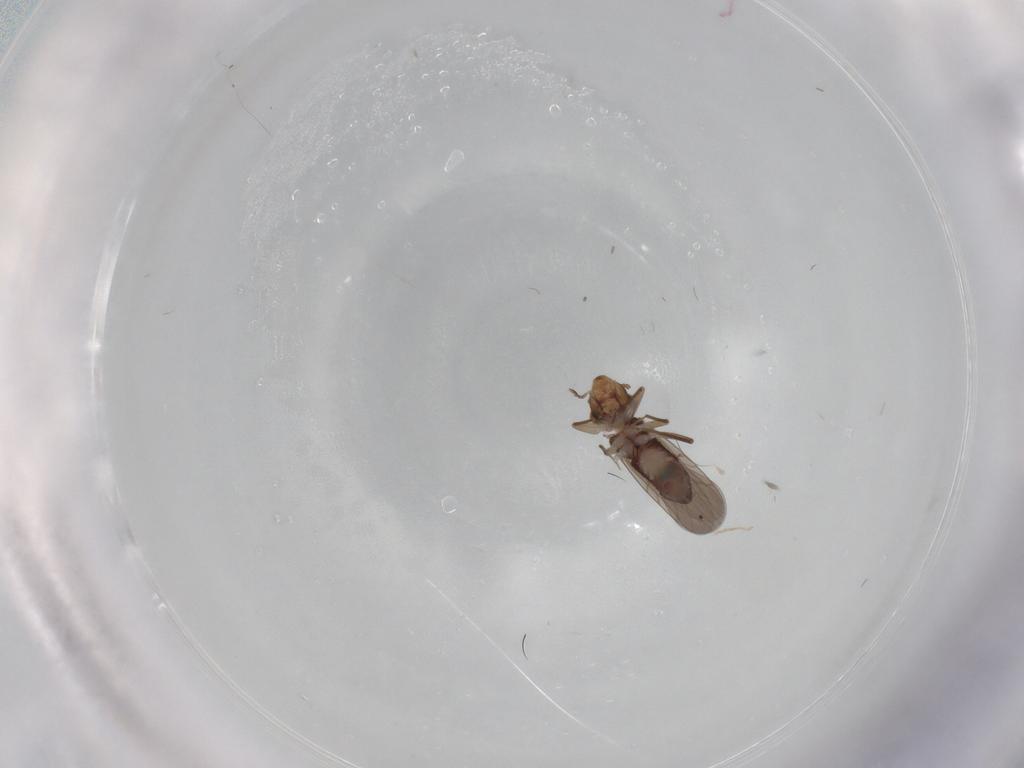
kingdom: Animalia
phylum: Arthropoda
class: Insecta
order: Psocodea
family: Lepidopsocidae
